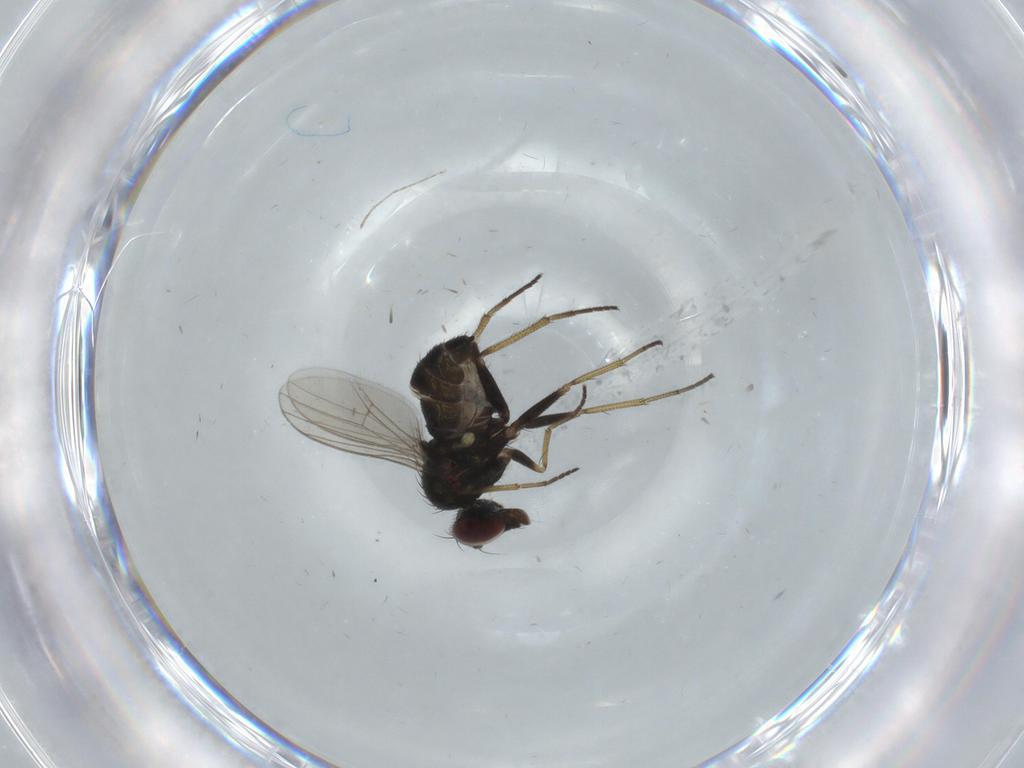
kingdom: Animalia
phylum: Arthropoda
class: Insecta
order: Diptera
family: Dolichopodidae
